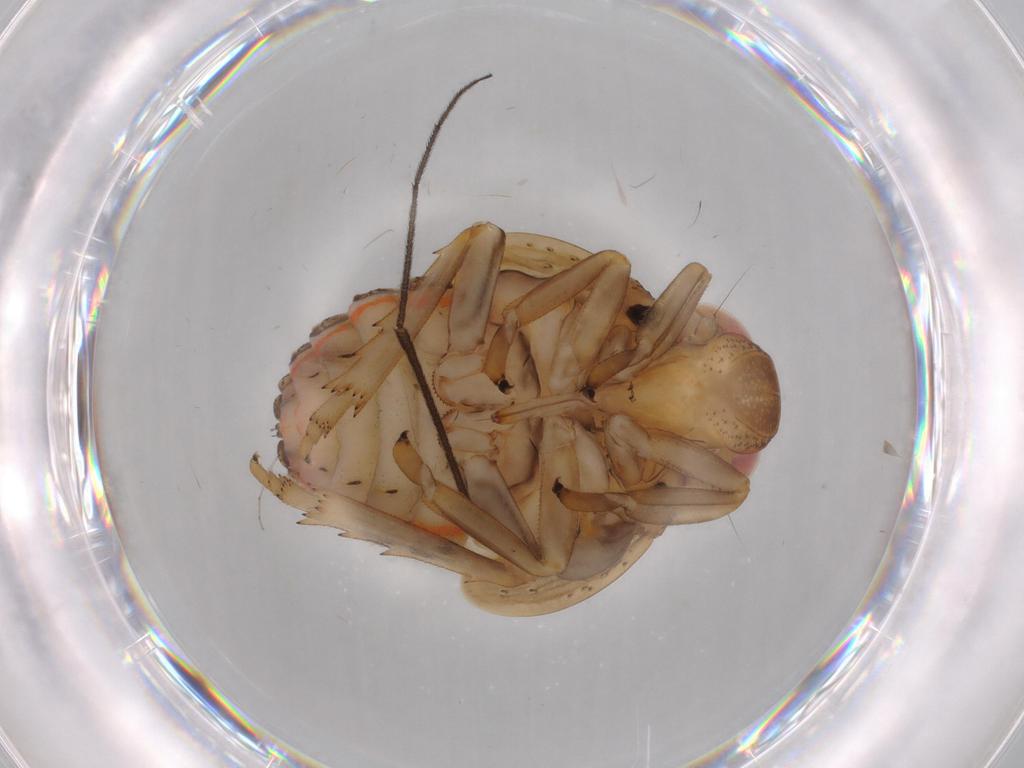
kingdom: Animalia
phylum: Arthropoda
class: Insecta
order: Hemiptera
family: Issidae
